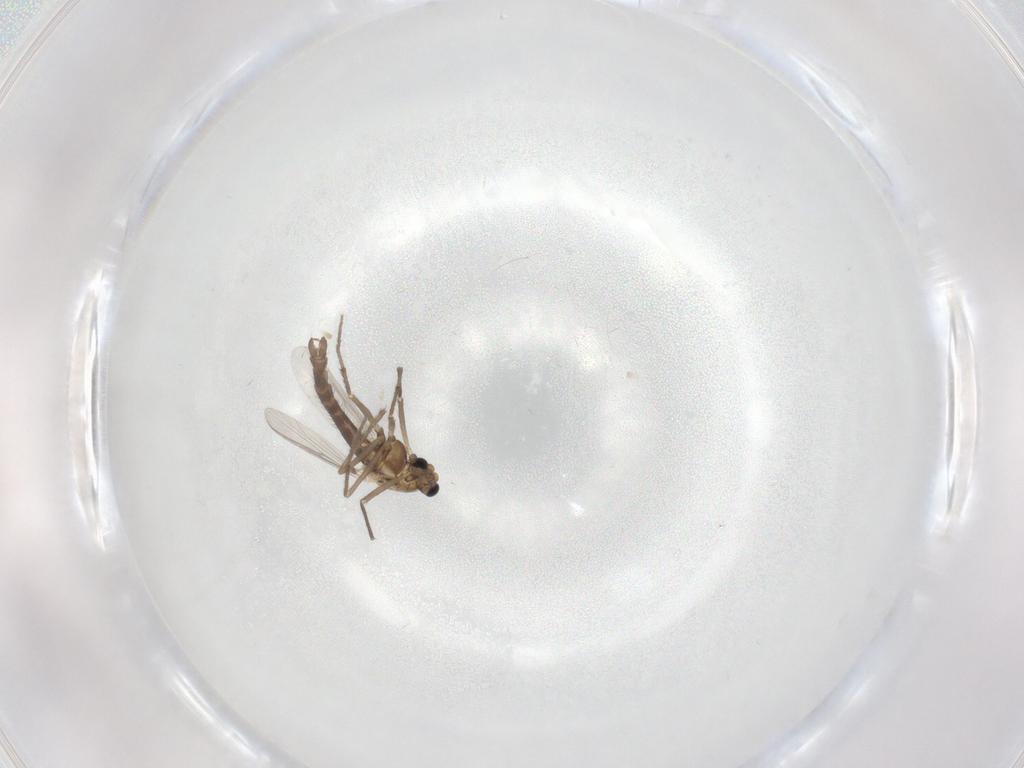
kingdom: Animalia
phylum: Arthropoda
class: Insecta
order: Diptera
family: Chironomidae
